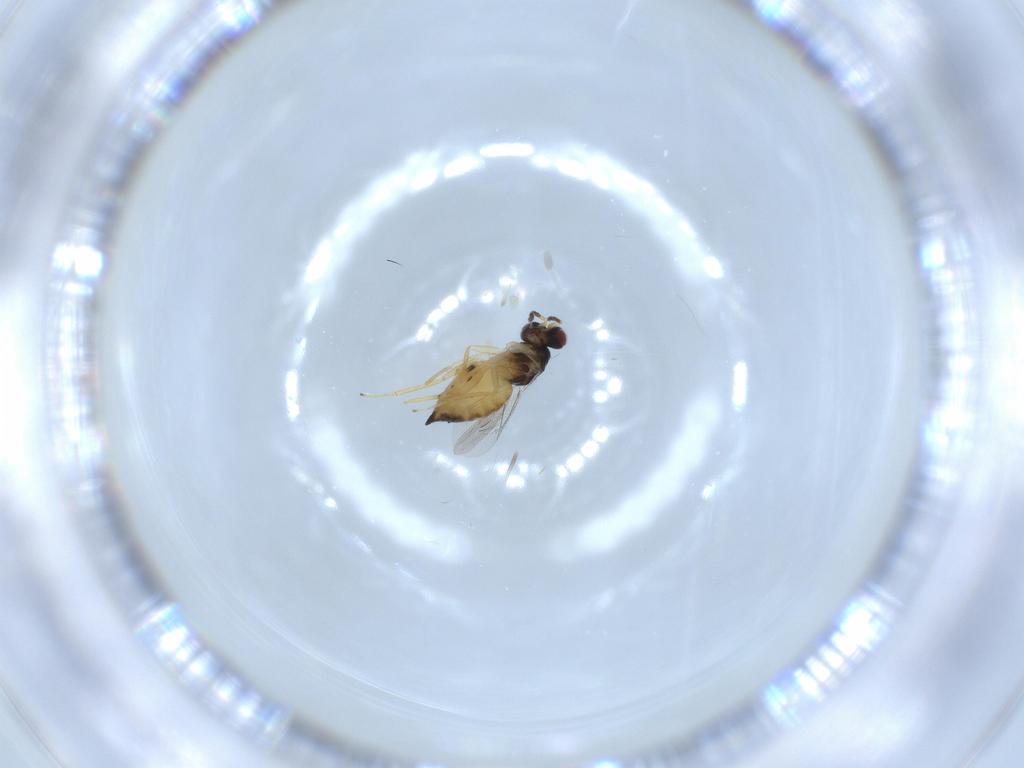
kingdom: Animalia
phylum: Arthropoda
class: Insecta
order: Hymenoptera
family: Eulophidae
